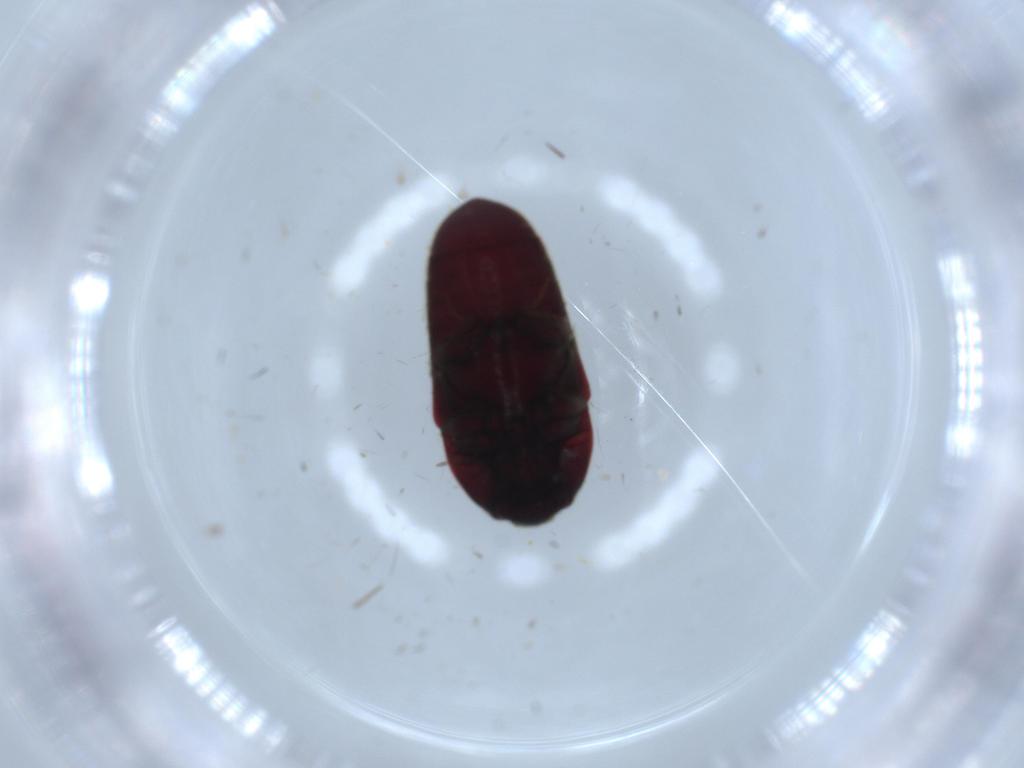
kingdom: Animalia
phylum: Arthropoda
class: Insecta
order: Coleoptera
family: Throscidae
